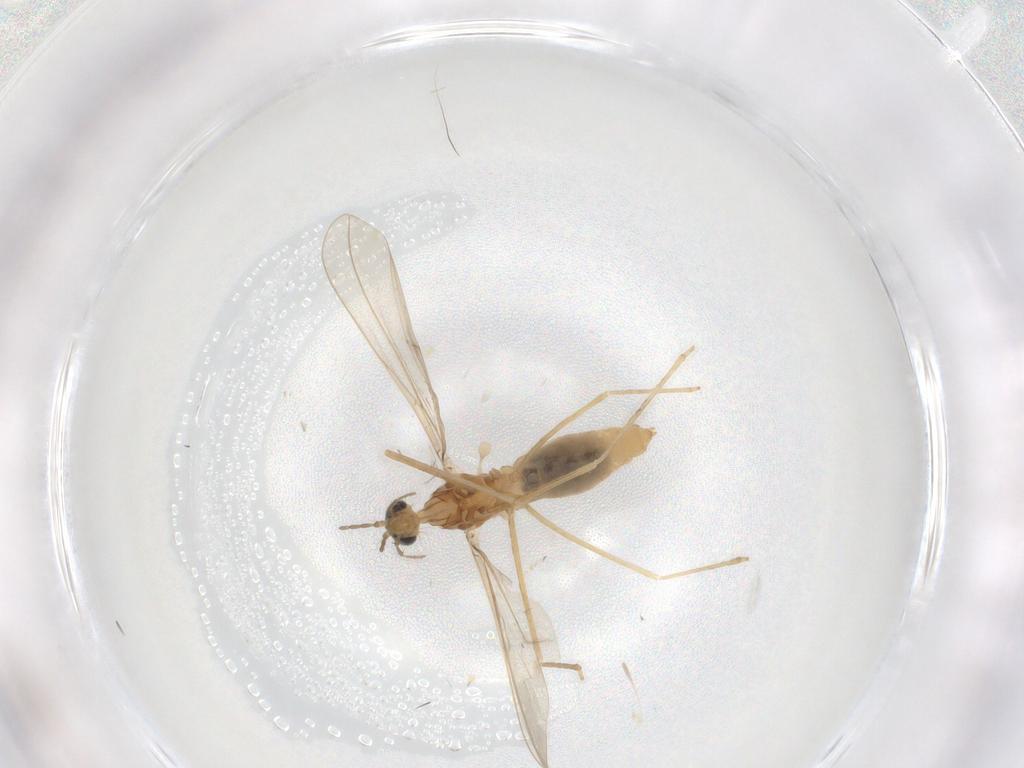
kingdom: Animalia
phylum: Arthropoda
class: Insecta
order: Diptera
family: Cecidomyiidae
